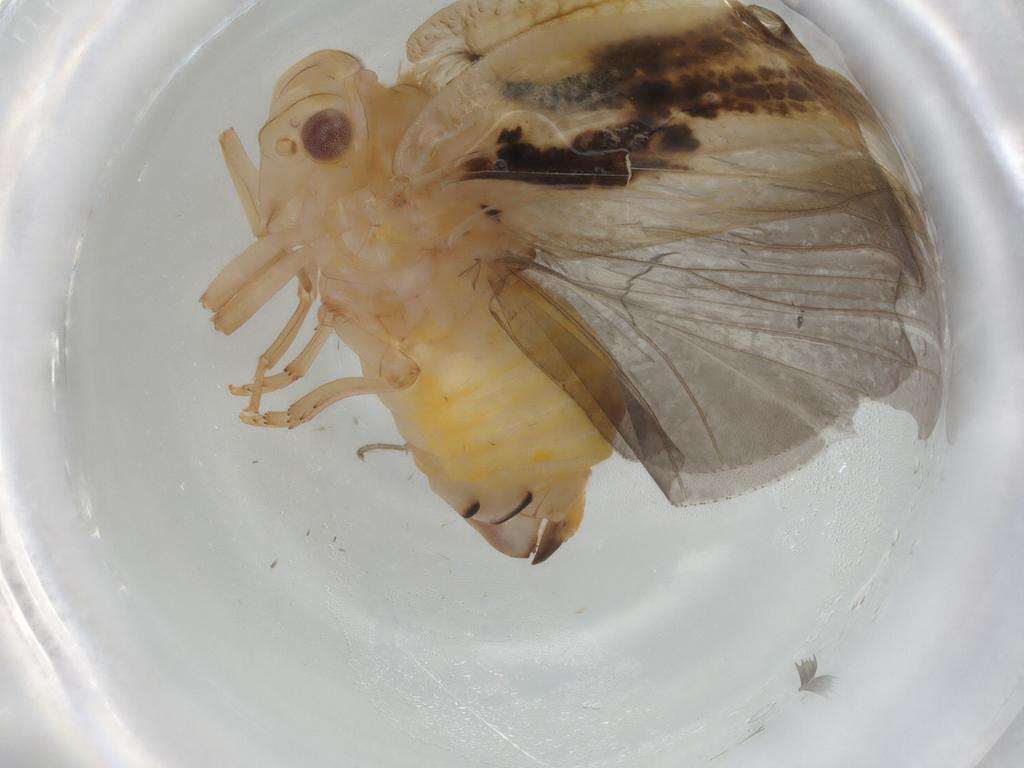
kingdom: Animalia
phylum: Arthropoda
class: Insecta
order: Hemiptera
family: Flatidae
